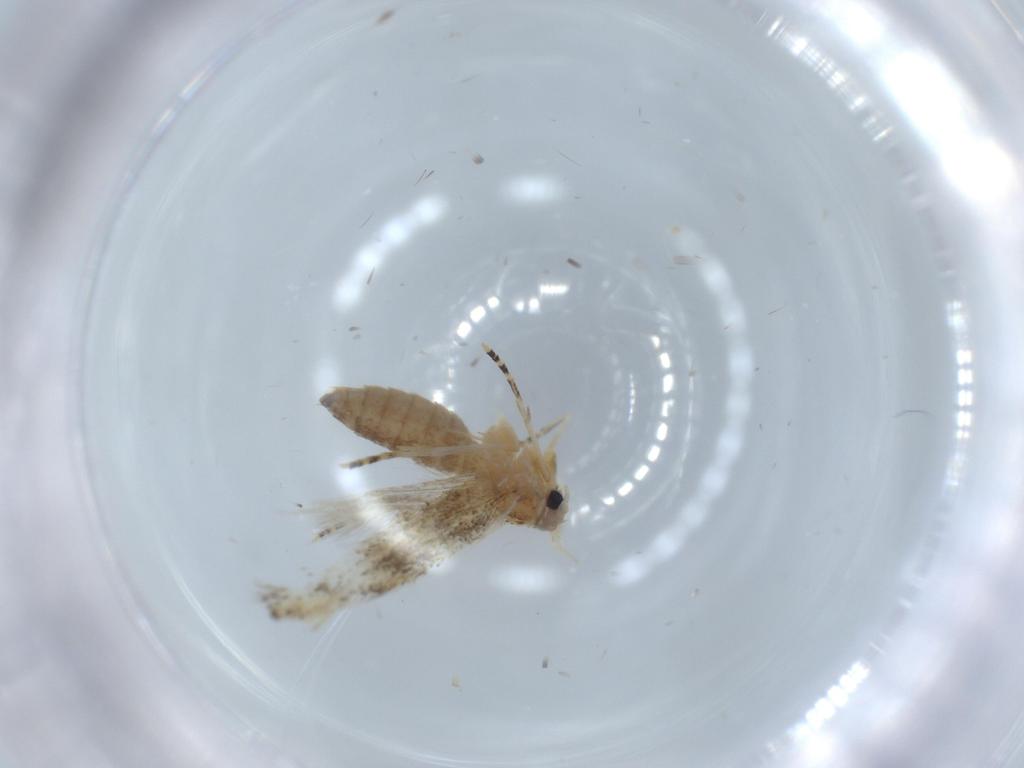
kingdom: Animalia
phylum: Arthropoda
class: Insecta
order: Lepidoptera
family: Bucculatricidae
